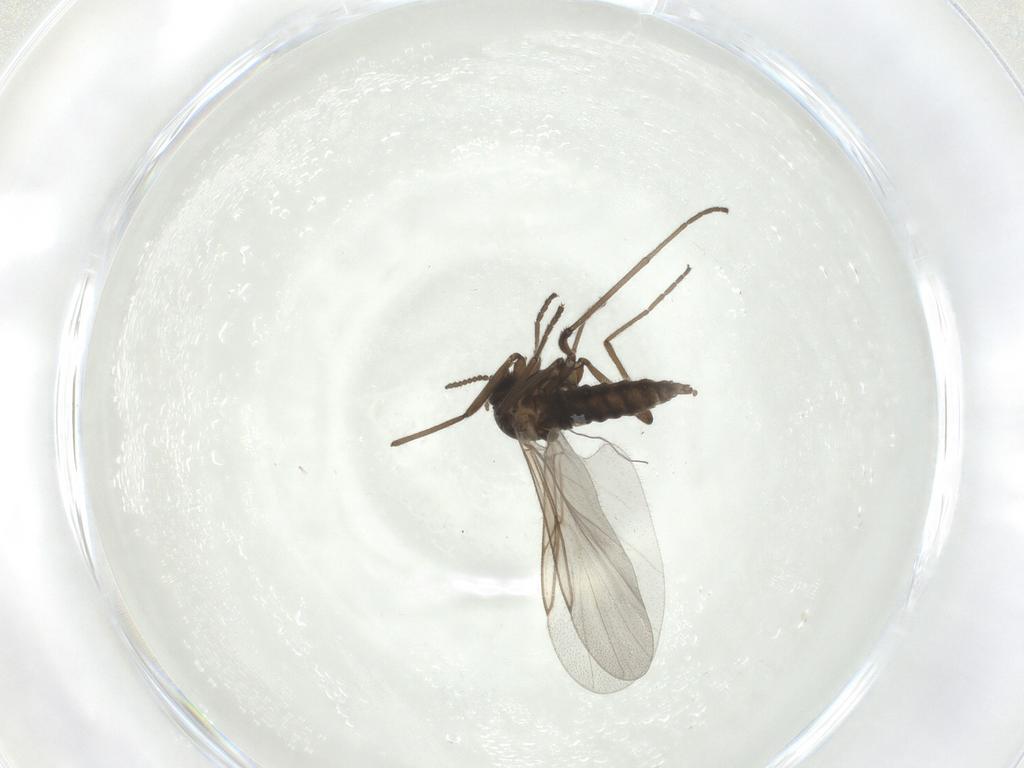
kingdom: Animalia
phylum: Arthropoda
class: Insecta
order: Diptera
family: Cecidomyiidae
